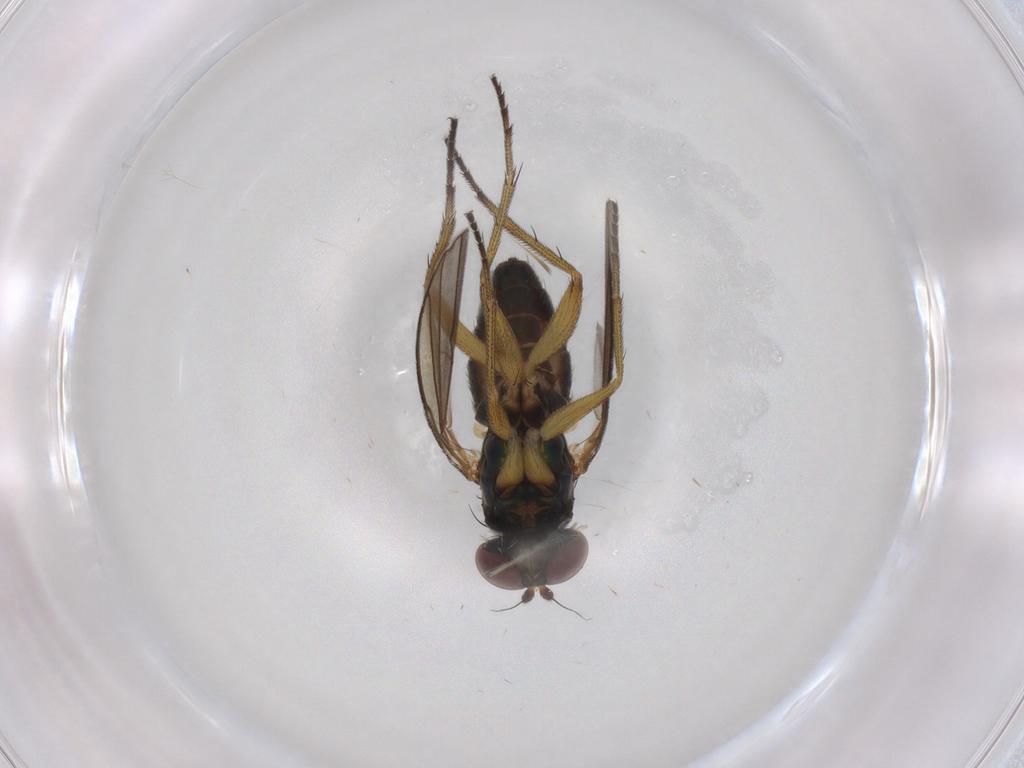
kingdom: Animalia
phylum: Arthropoda
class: Insecta
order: Diptera
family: Dolichopodidae
